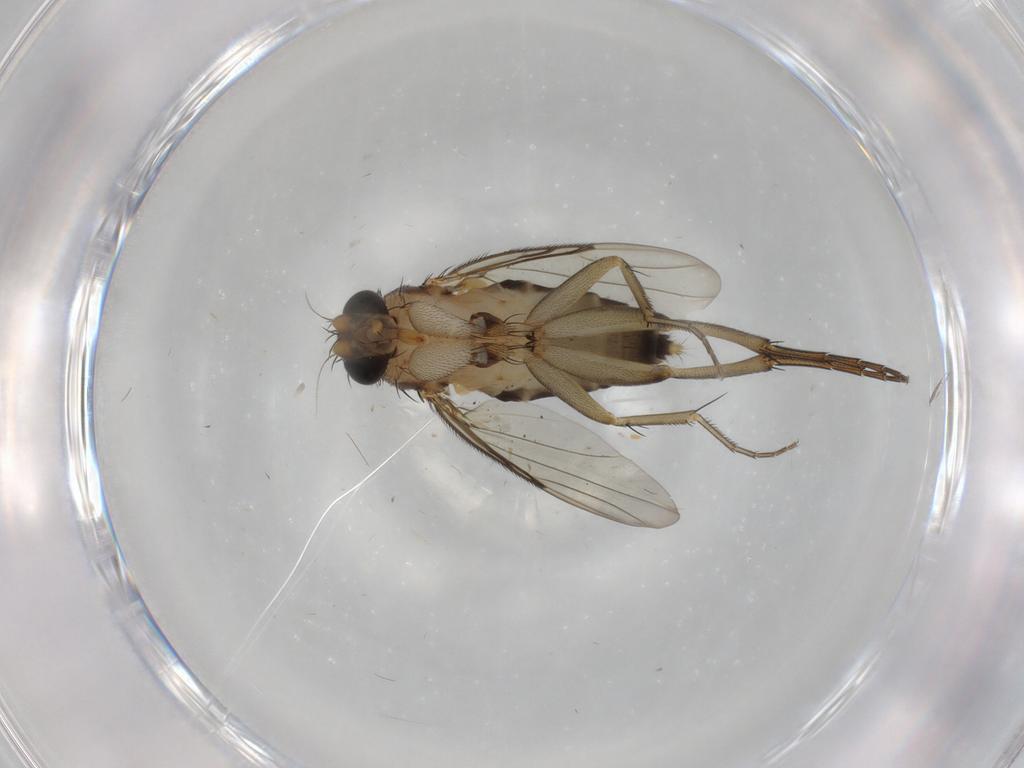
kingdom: Animalia
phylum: Arthropoda
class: Insecta
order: Diptera
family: Phoridae
